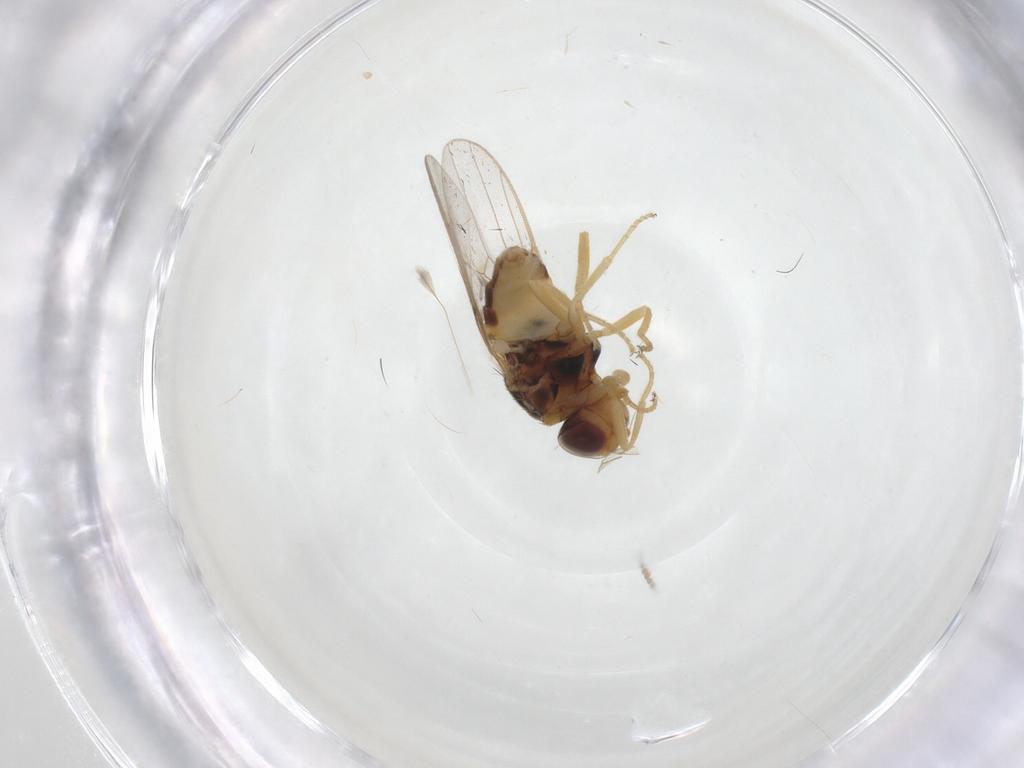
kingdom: Animalia
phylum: Arthropoda
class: Insecta
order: Diptera
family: Chloropidae
